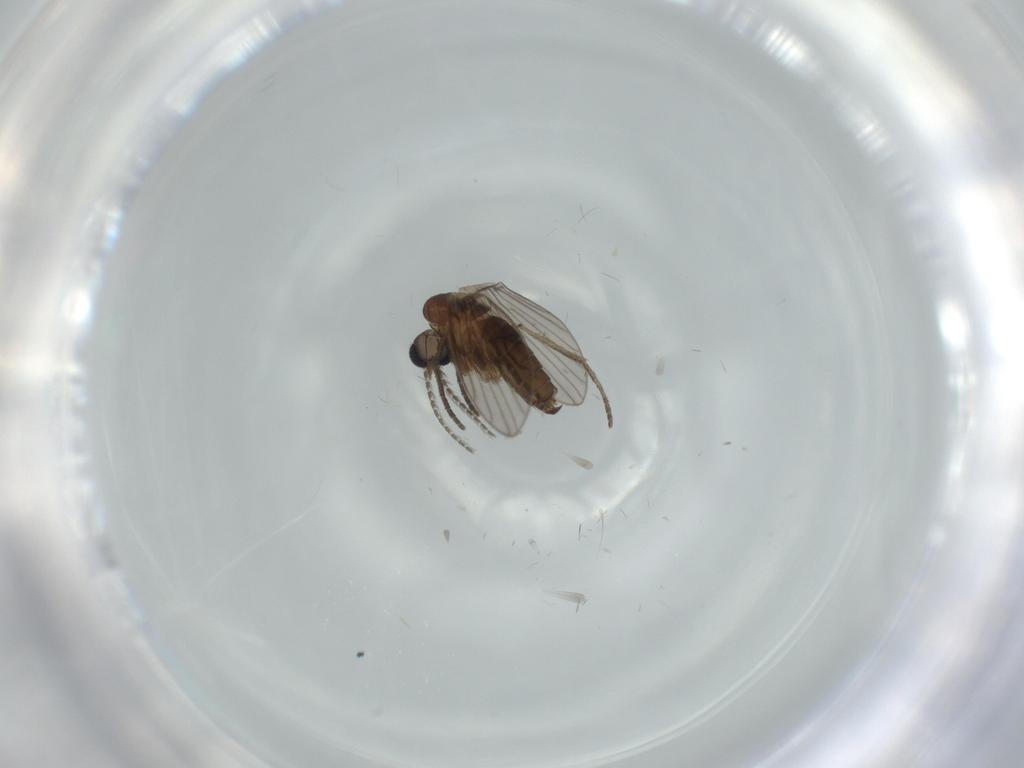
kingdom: Animalia
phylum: Arthropoda
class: Insecta
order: Diptera
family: Psychodidae
